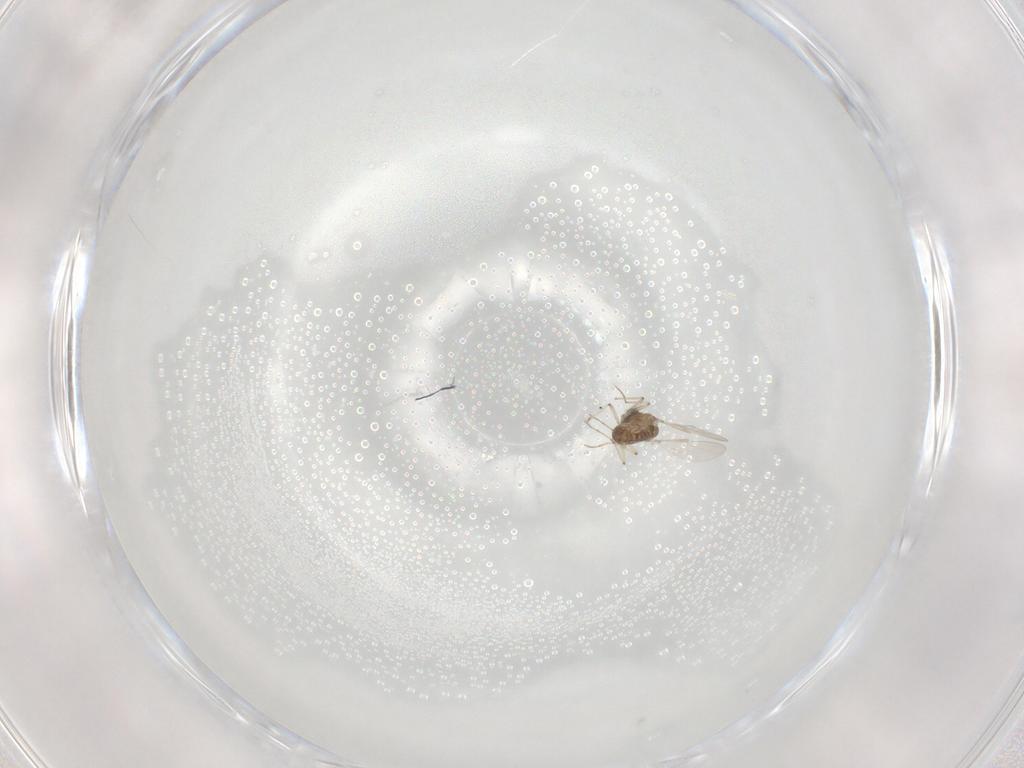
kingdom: Animalia
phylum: Arthropoda
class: Insecta
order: Diptera
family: Chironomidae
